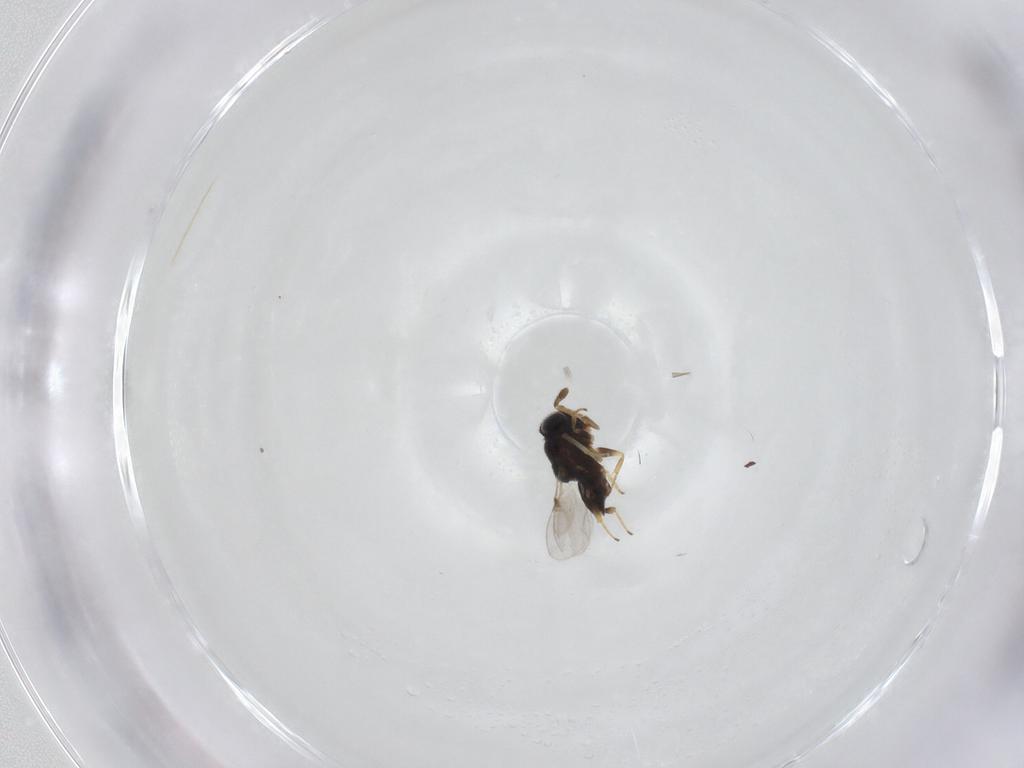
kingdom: Animalia
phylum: Arthropoda
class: Insecta
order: Hymenoptera
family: Encyrtidae
